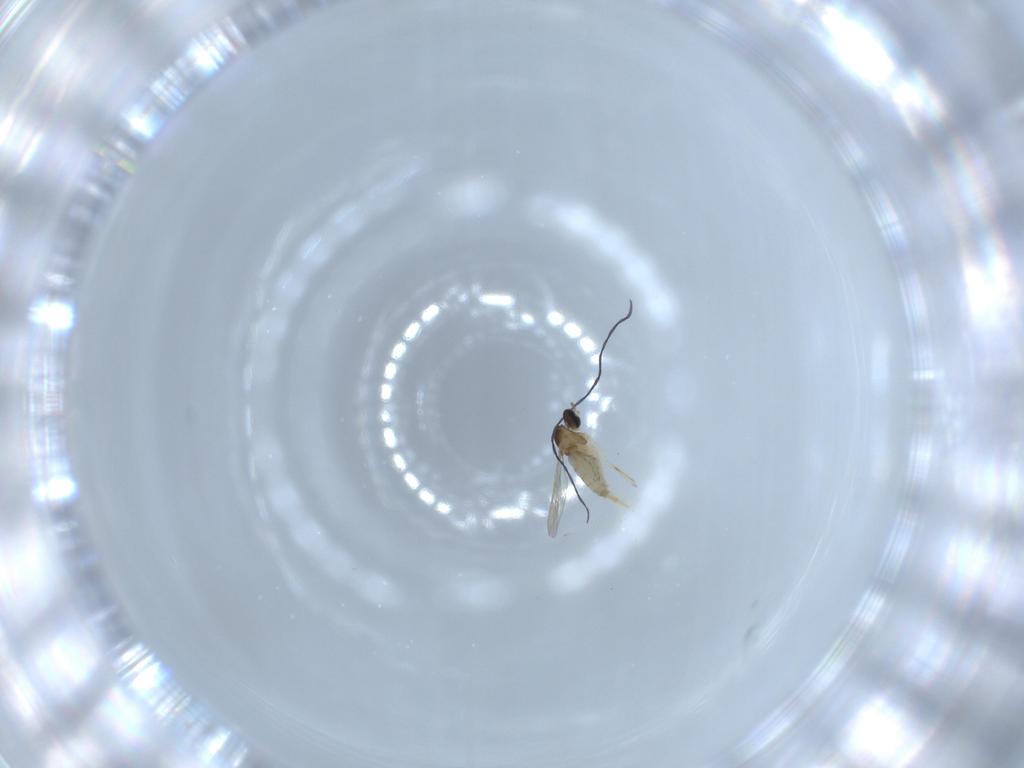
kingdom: Animalia
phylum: Arthropoda
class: Insecta
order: Diptera
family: Cecidomyiidae
